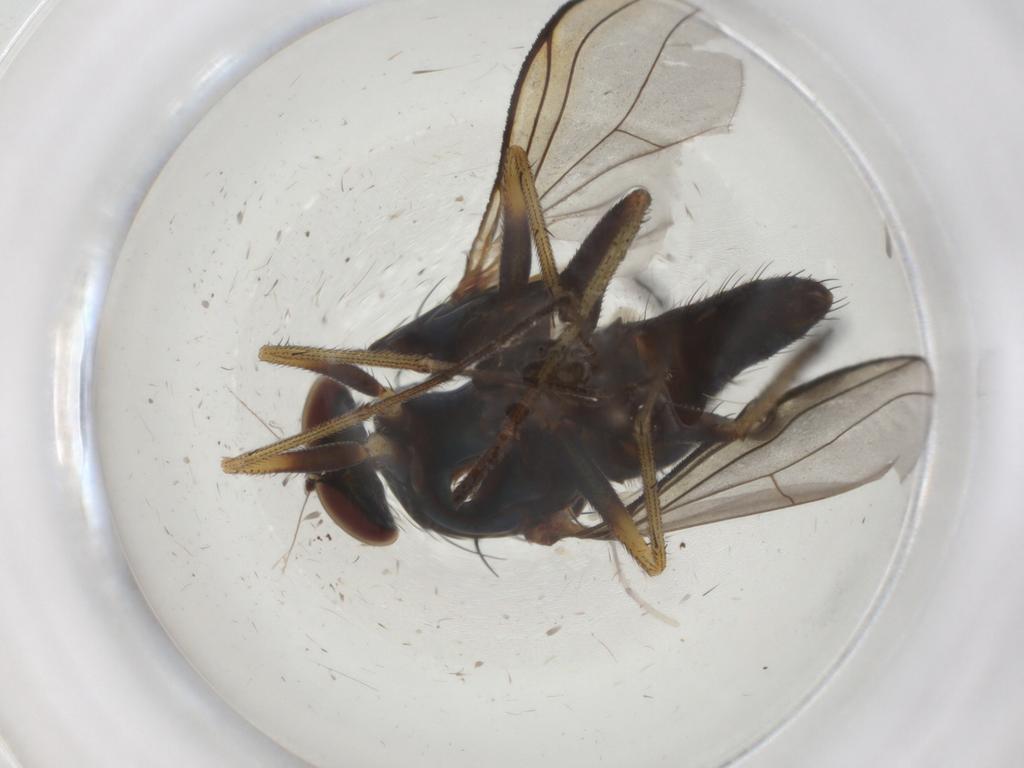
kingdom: Animalia
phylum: Arthropoda
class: Insecta
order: Diptera
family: Dolichopodidae
